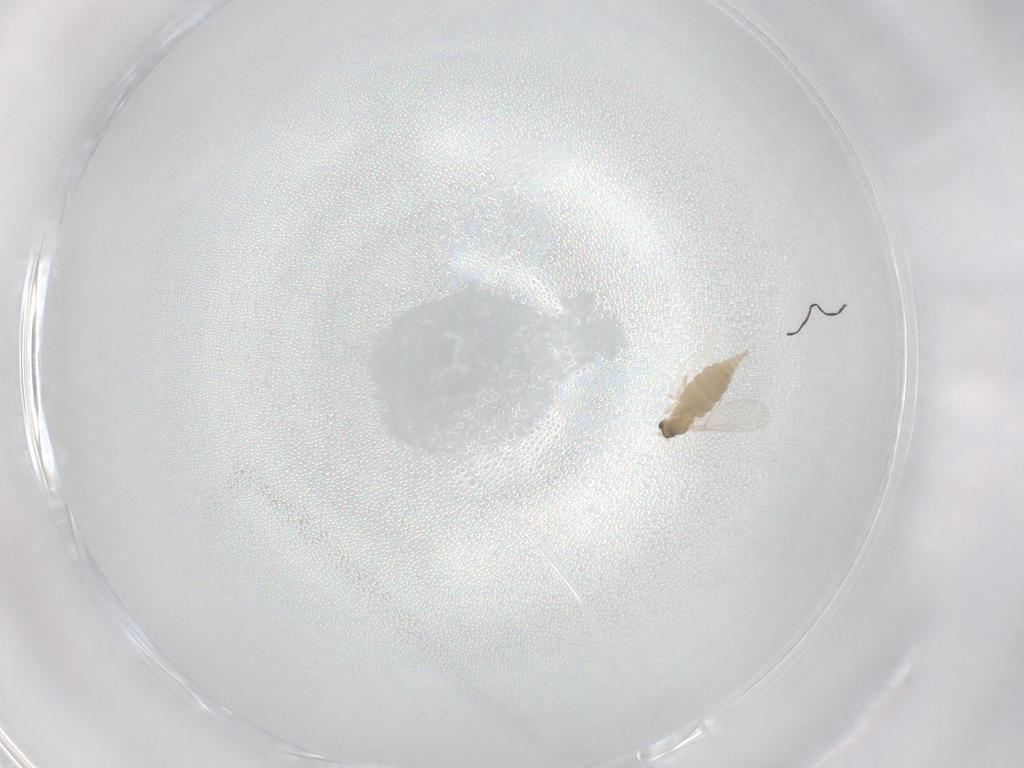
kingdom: Animalia
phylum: Arthropoda
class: Insecta
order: Diptera
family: Cecidomyiidae
